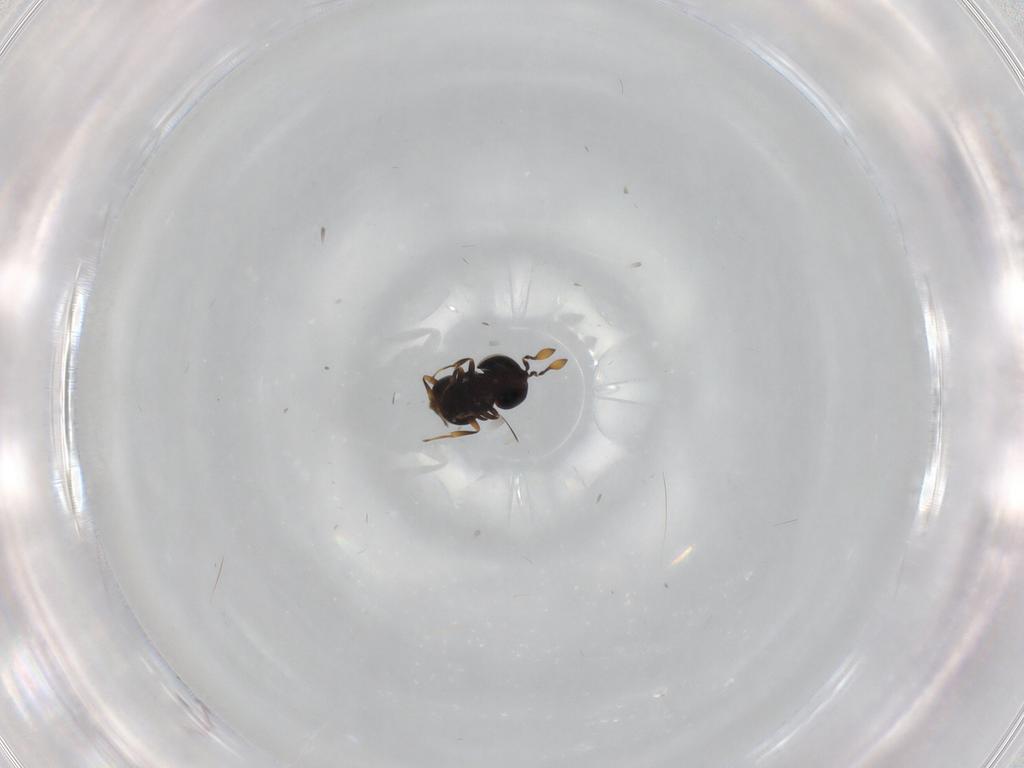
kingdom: Animalia
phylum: Arthropoda
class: Insecta
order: Hymenoptera
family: Scelionidae
